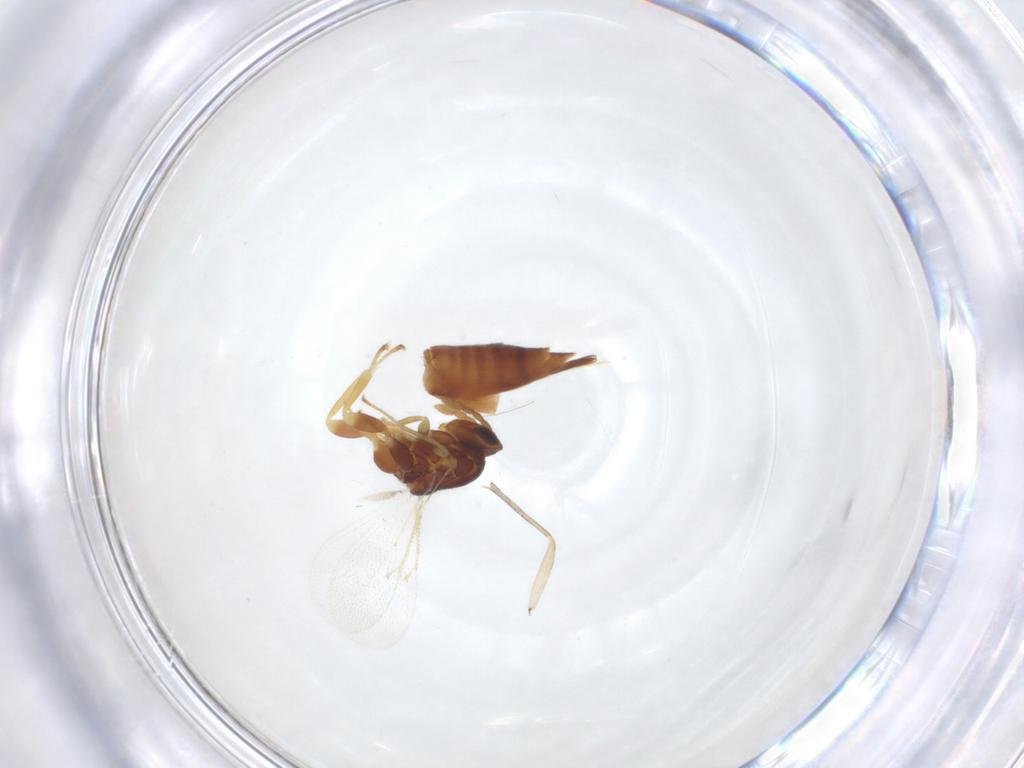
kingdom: Animalia
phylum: Arthropoda
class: Insecta
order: Hymenoptera
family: Eulophidae
